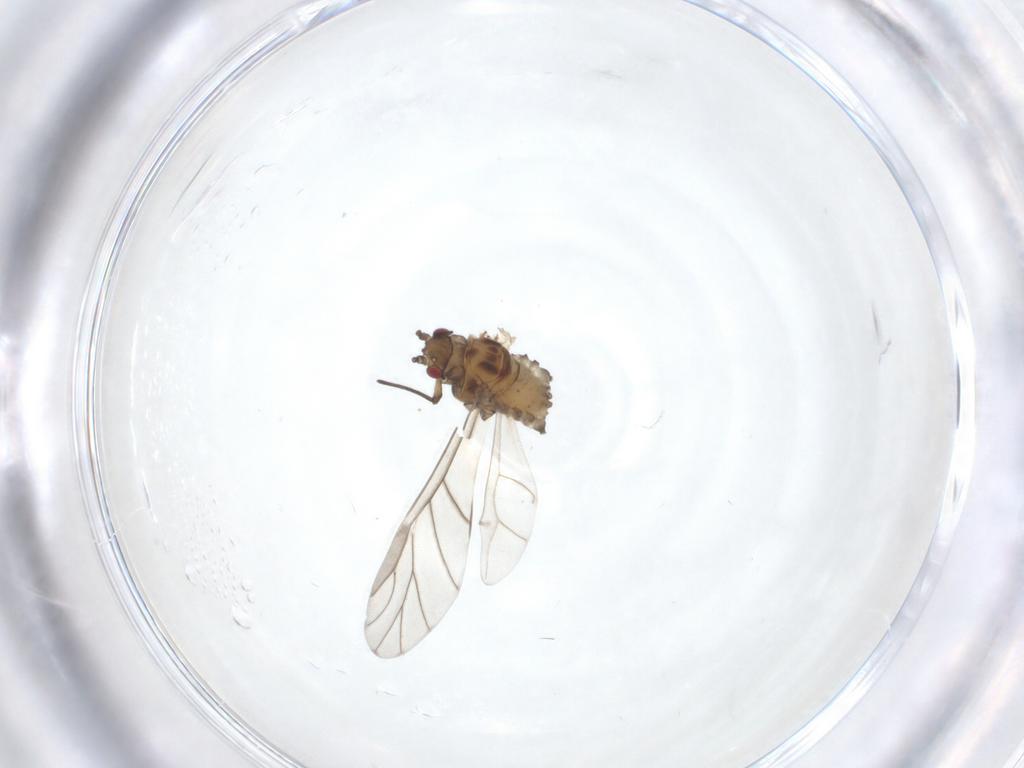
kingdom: Animalia
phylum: Arthropoda
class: Insecta
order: Hemiptera
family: Aphididae
